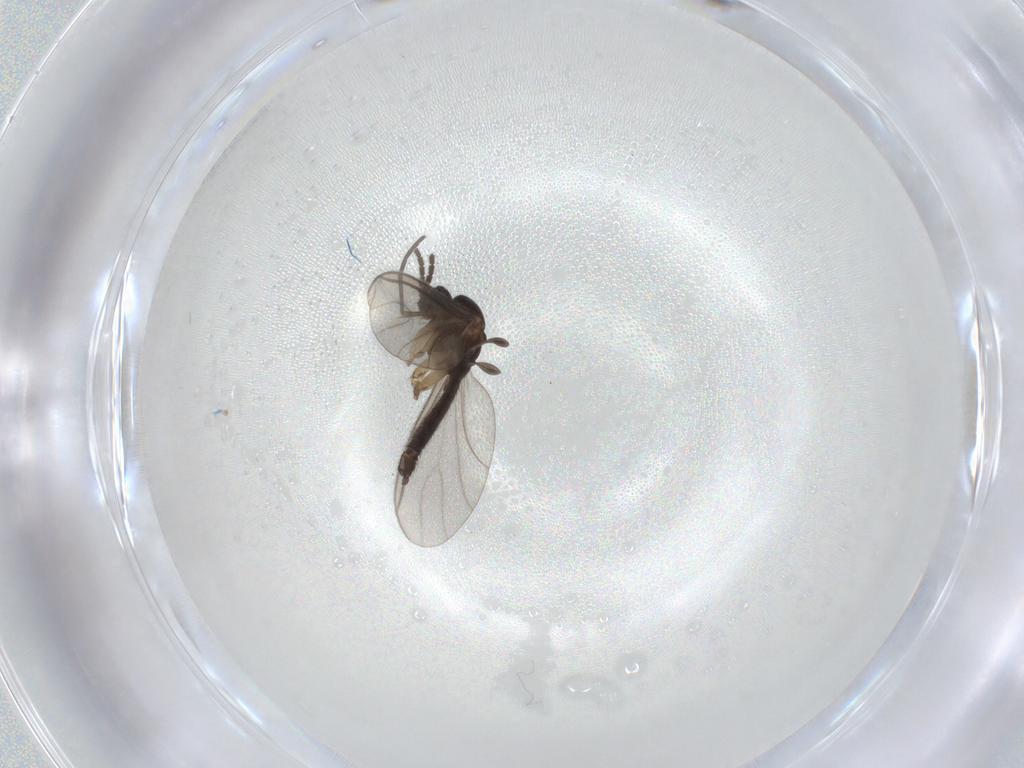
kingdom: Animalia
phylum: Arthropoda
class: Insecta
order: Diptera
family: Sciaridae
